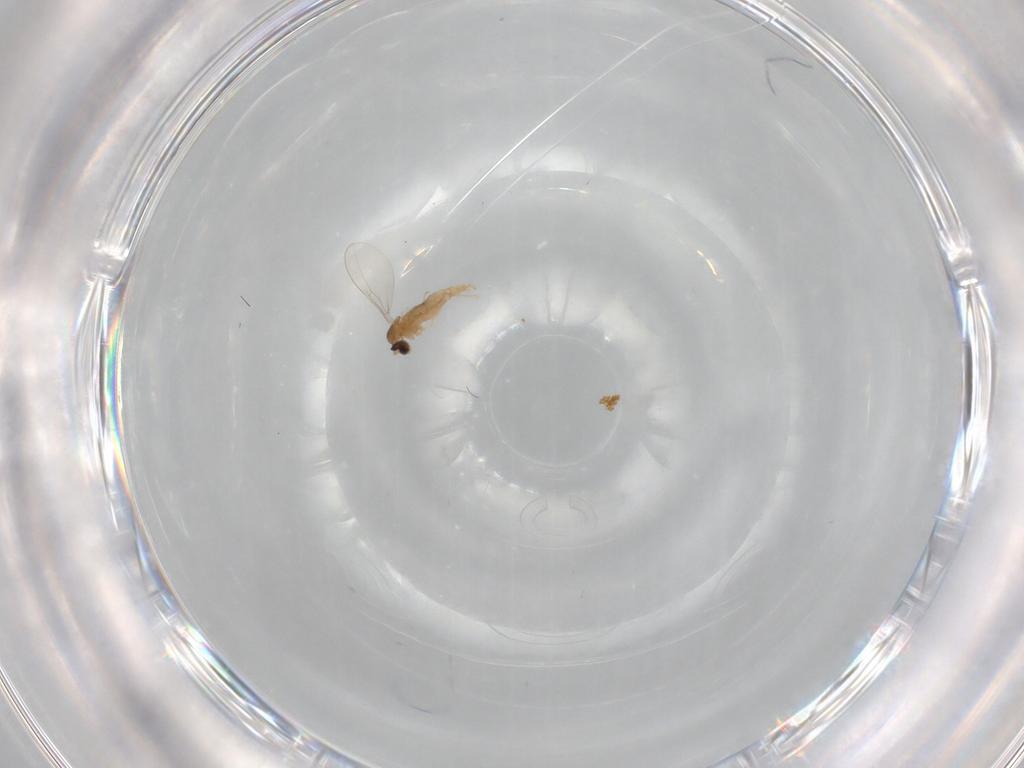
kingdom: Animalia
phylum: Arthropoda
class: Insecta
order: Diptera
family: Cecidomyiidae
